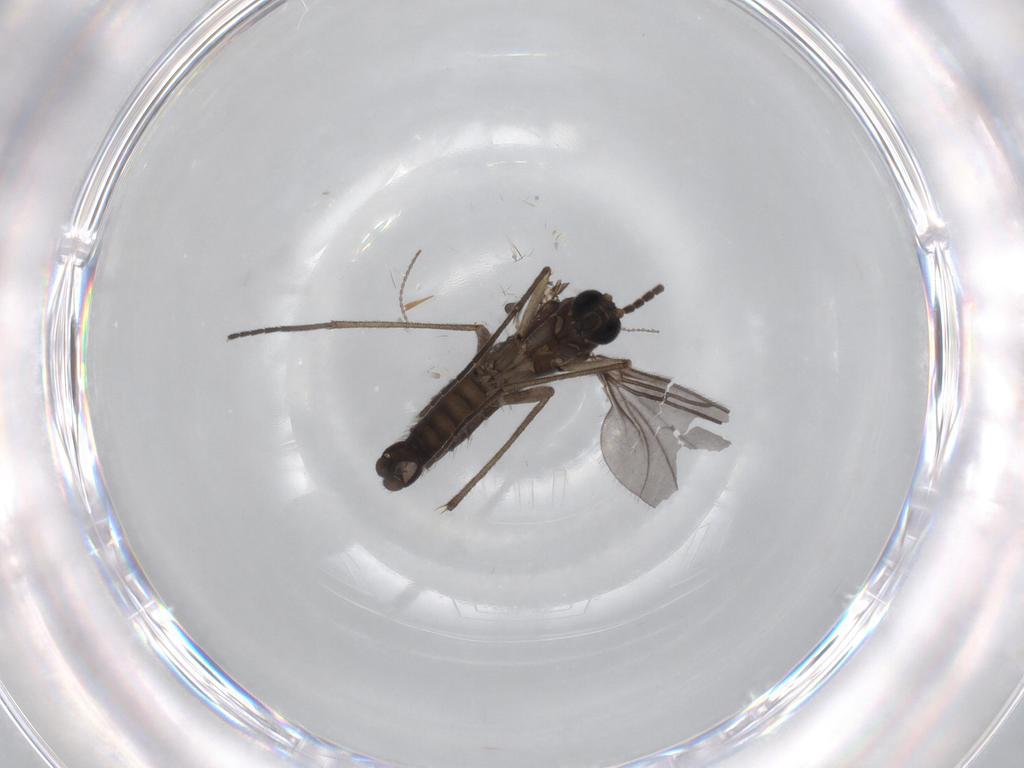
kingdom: Animalia
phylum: Arthropoda
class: Insecta
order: Diptera
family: Sciaridae
